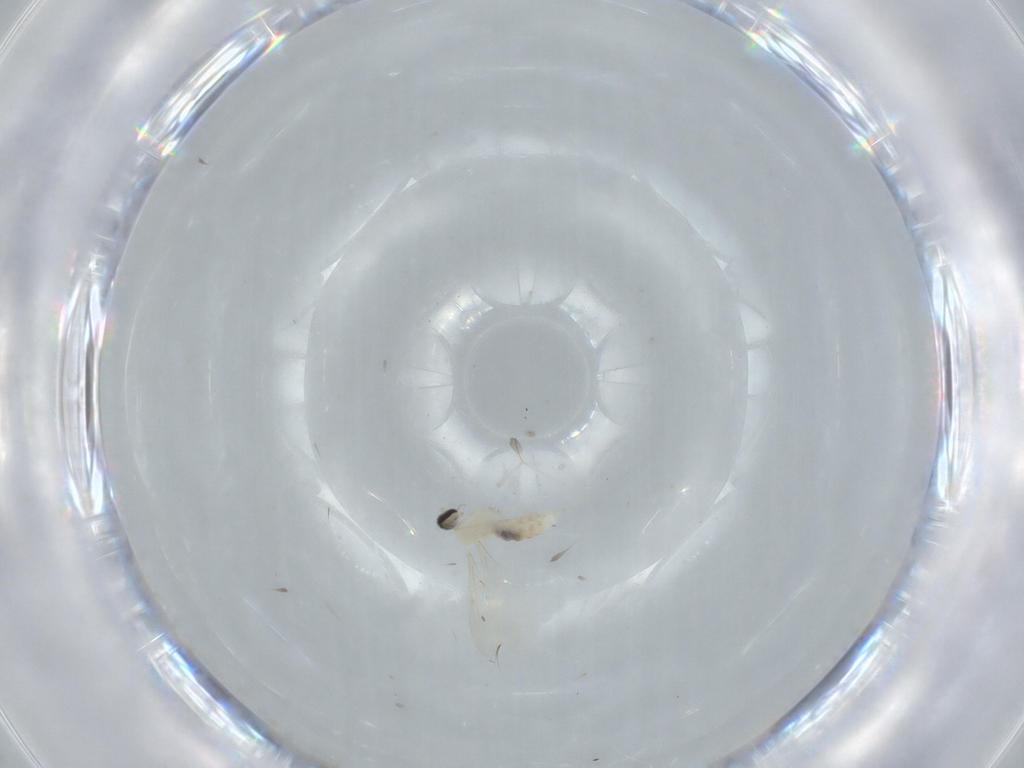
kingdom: Animalia
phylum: Arthropoda
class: Insecta
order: Diptera
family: Cecidomyiidae
